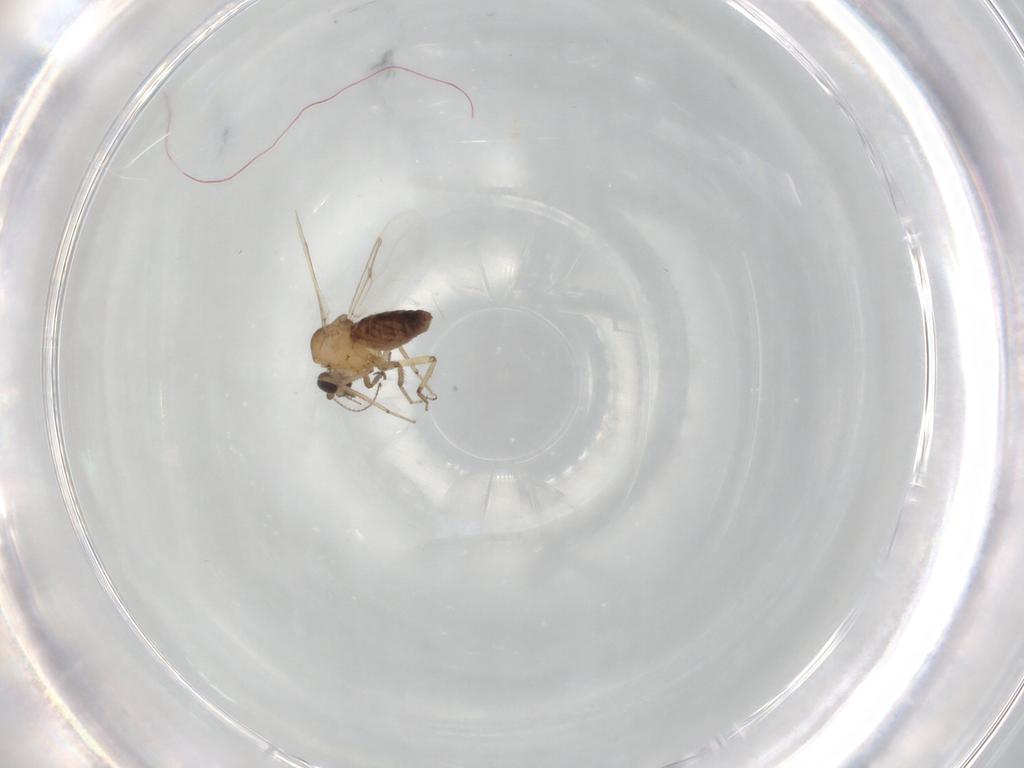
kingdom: Animalia
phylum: Arthropoda
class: Insecta
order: Diptera
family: Ceratopogonidae
